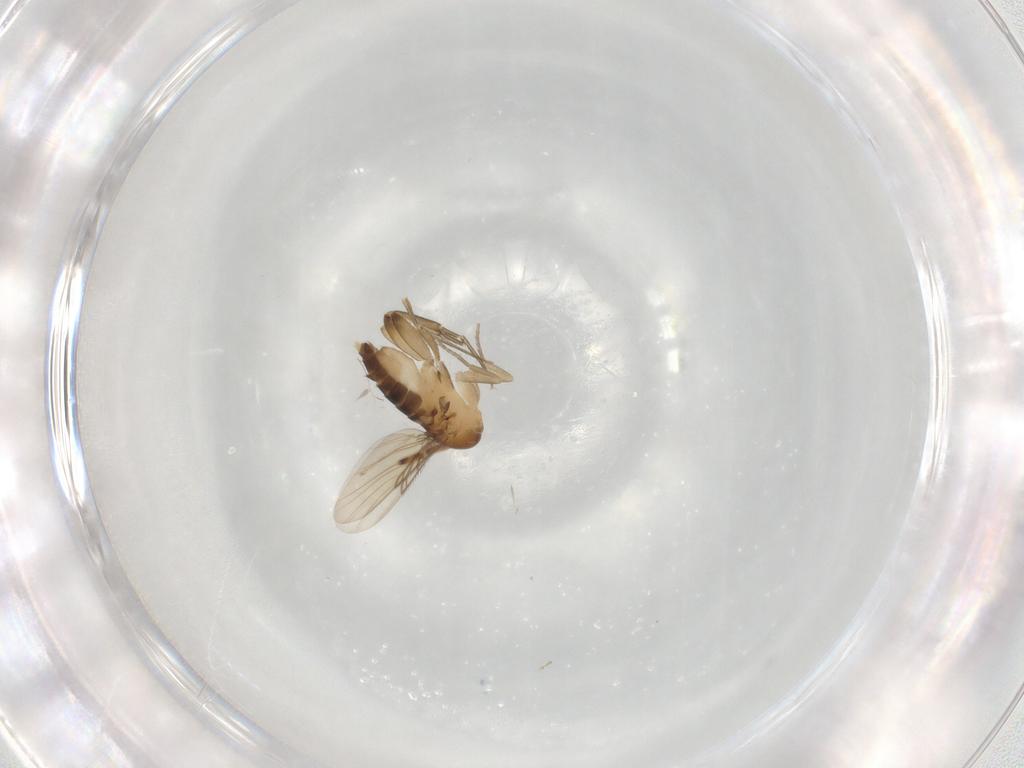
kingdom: Animalia
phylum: Arthropoda
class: Insecta
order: Diptera
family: Phoridae
